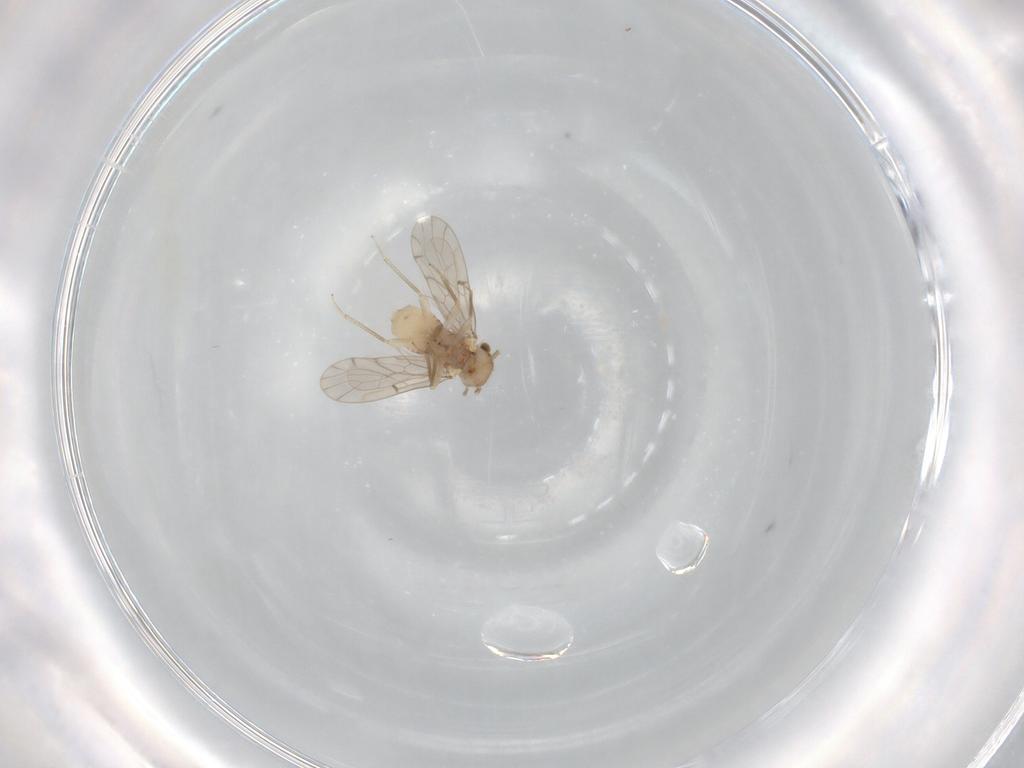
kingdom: Animalia
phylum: Arthropoda
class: Insecta
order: Psocodea
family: Ectopsocidae
